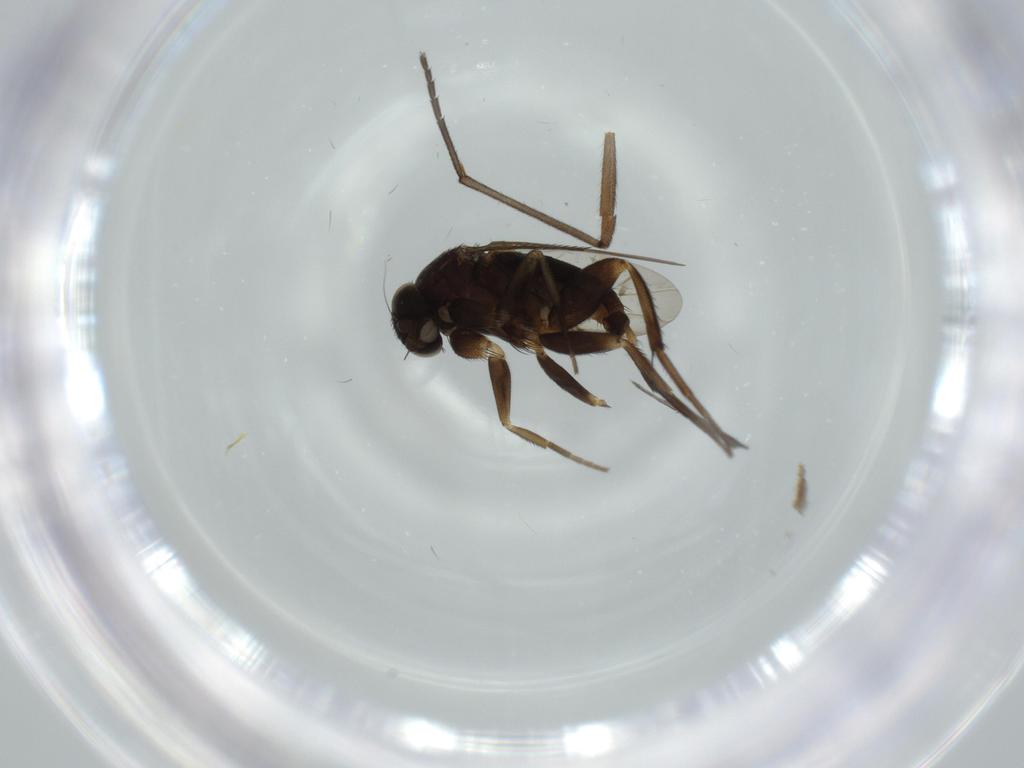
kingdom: Animalia
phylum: Arthropoda
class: Insecta
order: Diptera
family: Sciaridae
